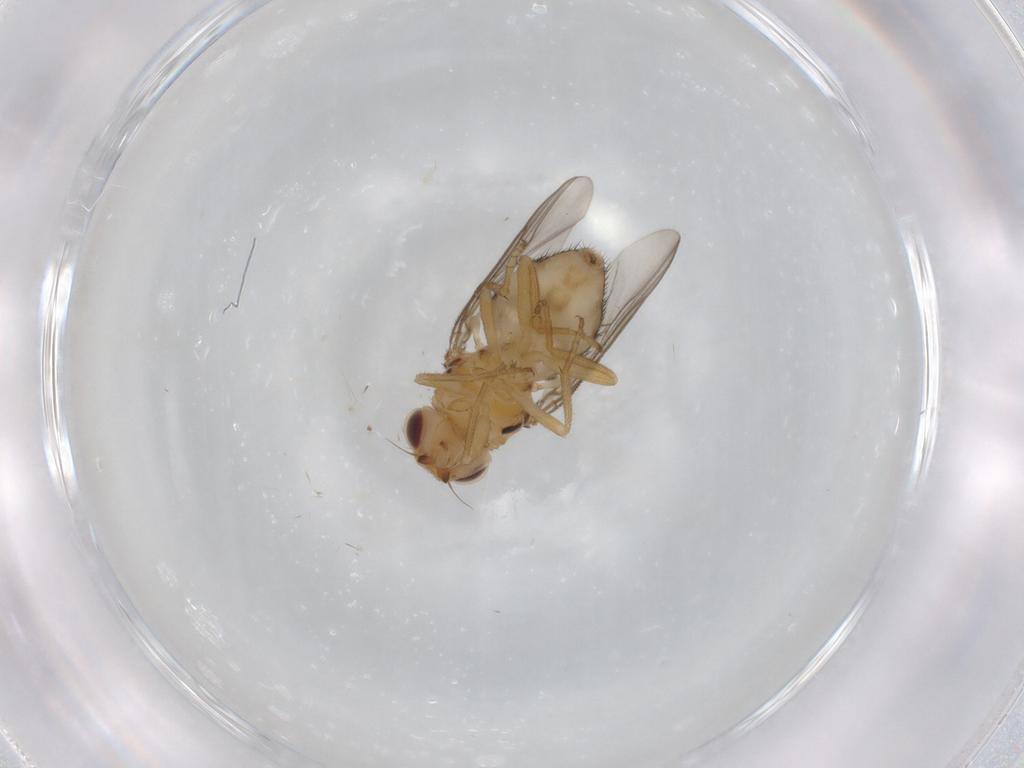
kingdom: Animalia
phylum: Arthropoda
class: Insecta
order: Diptera
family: Chloropidae
